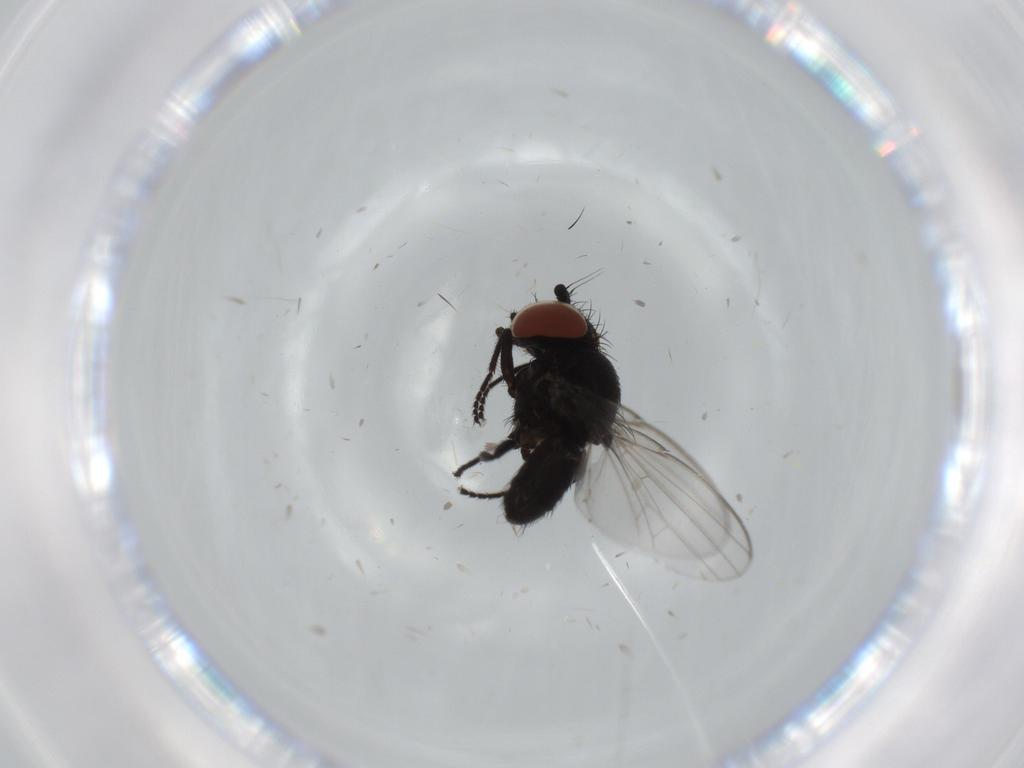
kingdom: Animalia
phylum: Arthropoda
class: Insecta
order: Diptera
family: Milichiidae
